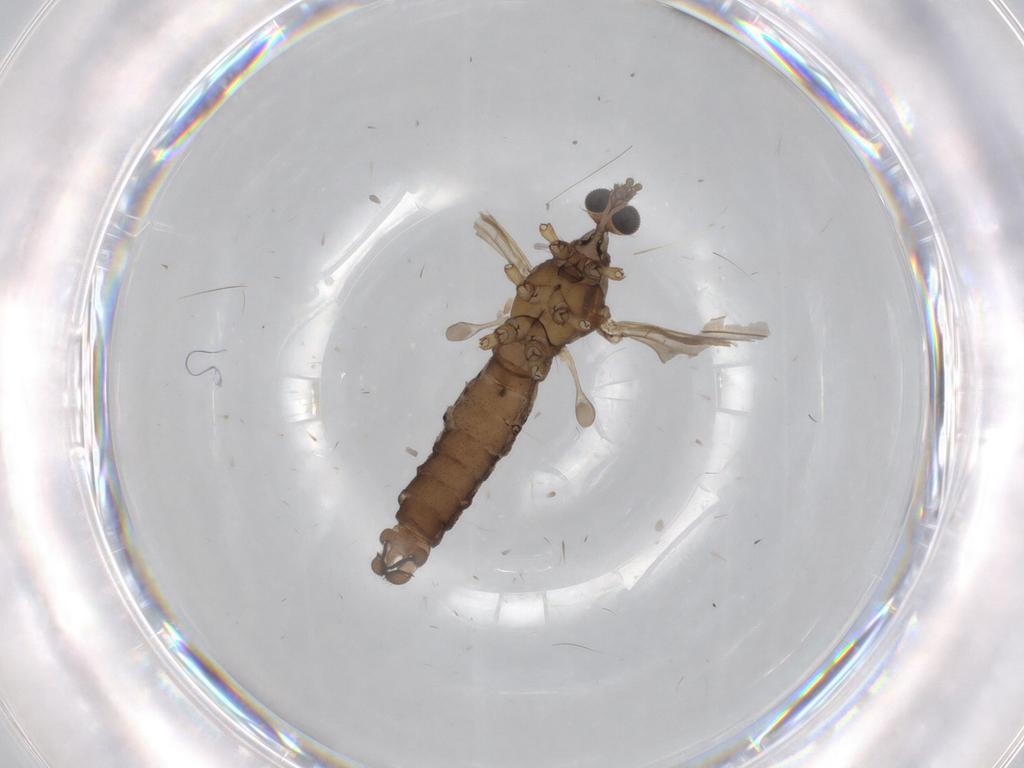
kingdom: Animalia
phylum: Arthropoda
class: Insecta
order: Diptera
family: Limoniidae
